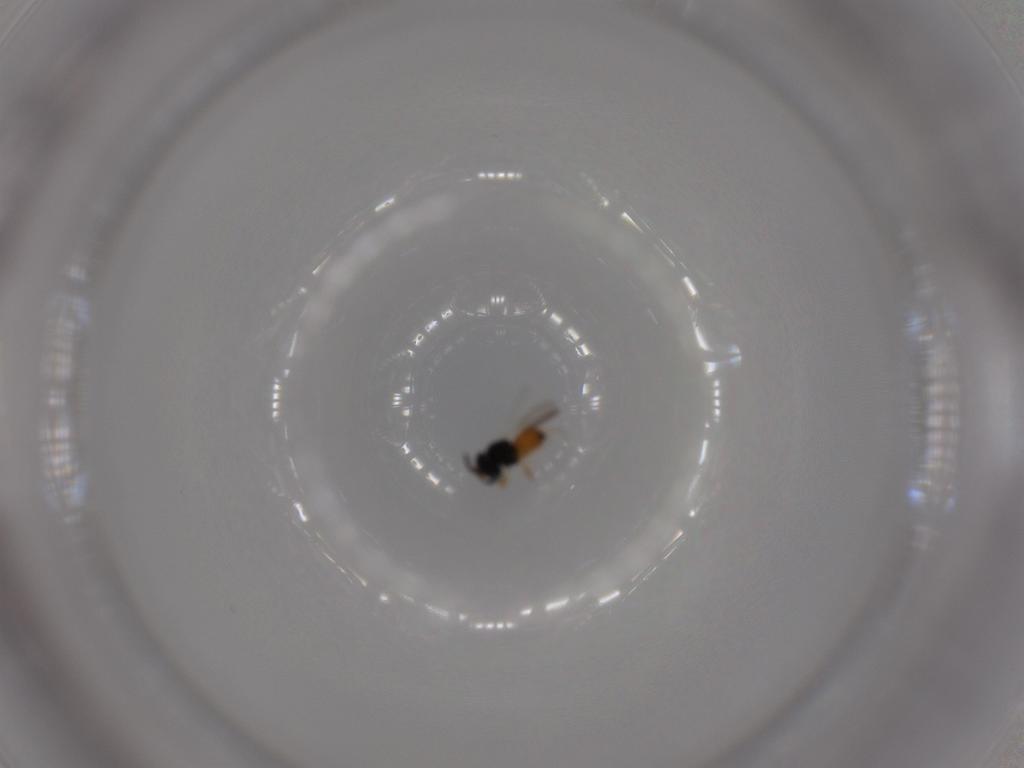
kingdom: Animalia
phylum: Arthropoda
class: Insecta
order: Hymenoptera
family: Scelionidae
